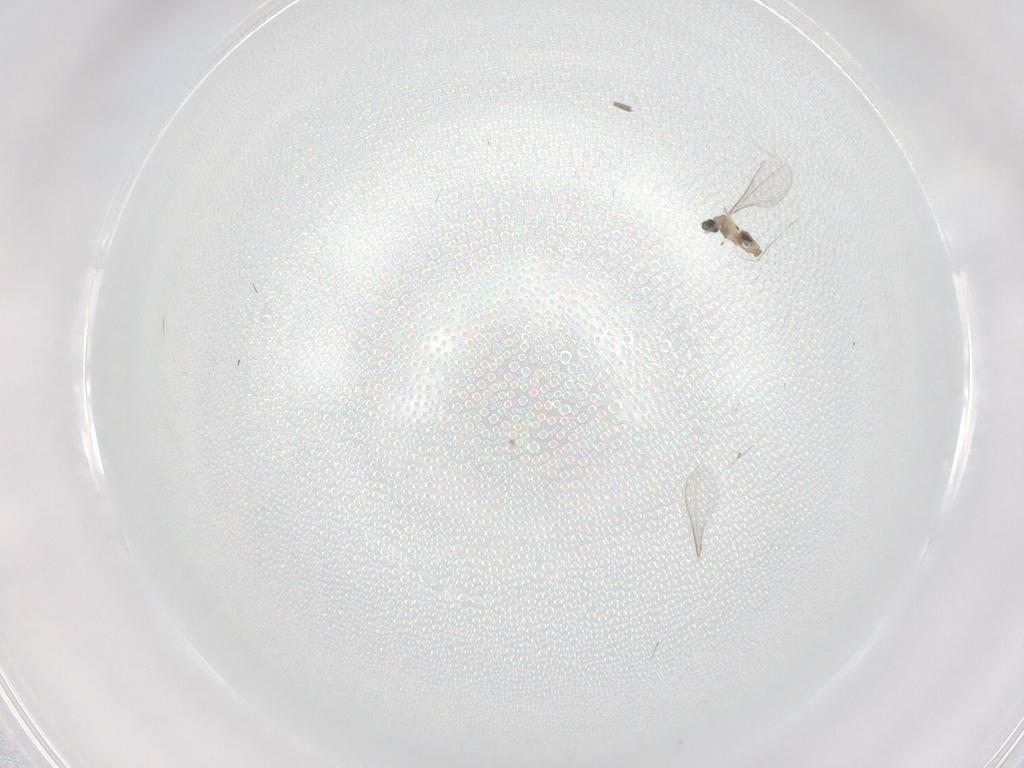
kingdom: Animalia
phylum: Arthropoda
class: Insecta
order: Diptera
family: Cecidomyiidae
